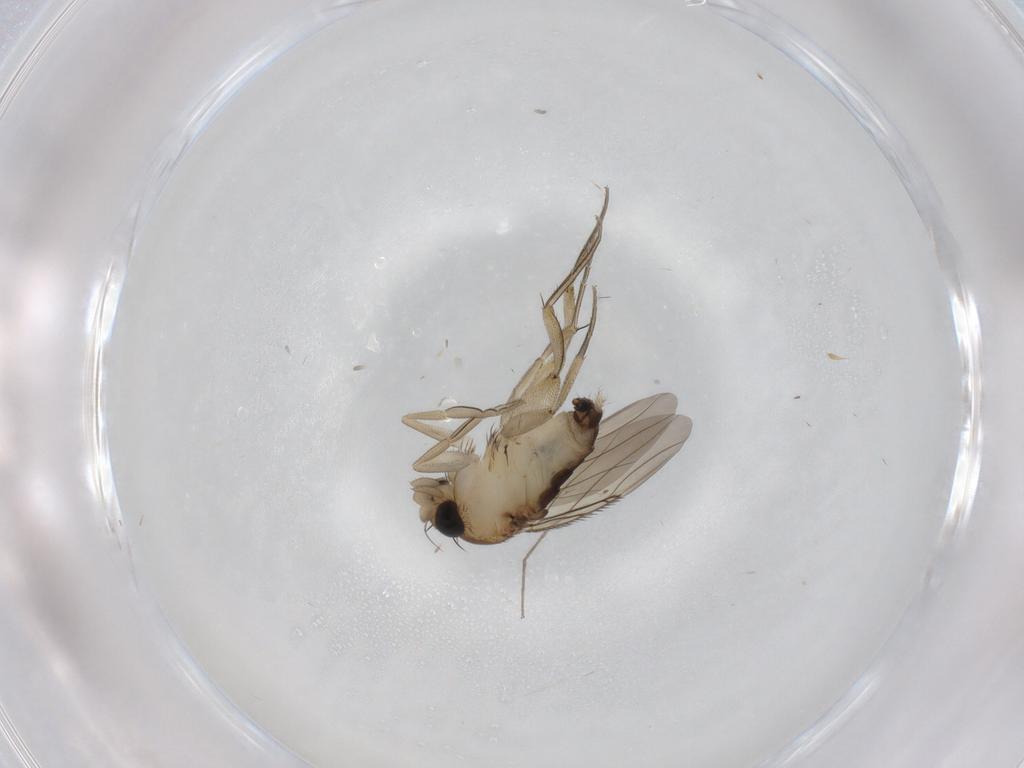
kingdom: Animalia
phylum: Arthropoda
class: Insecta
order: Diptera
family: Phoridae
